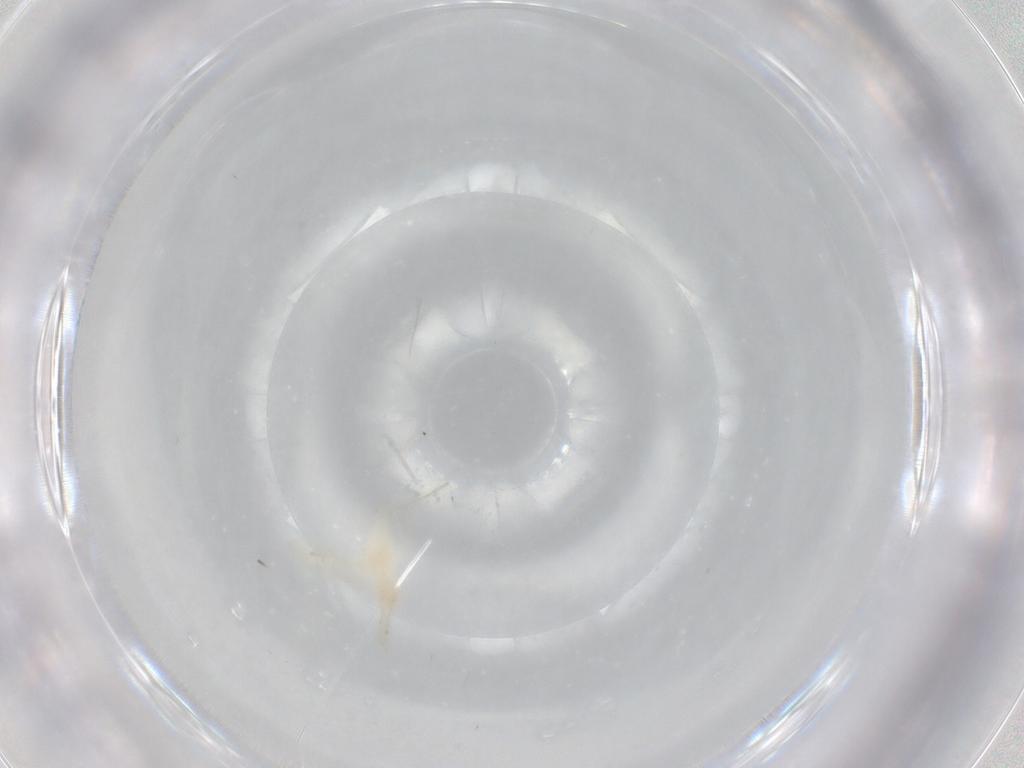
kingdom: Animalia
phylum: Arthropoda
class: Insecta
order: Diptera
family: Cecidomyiidae
